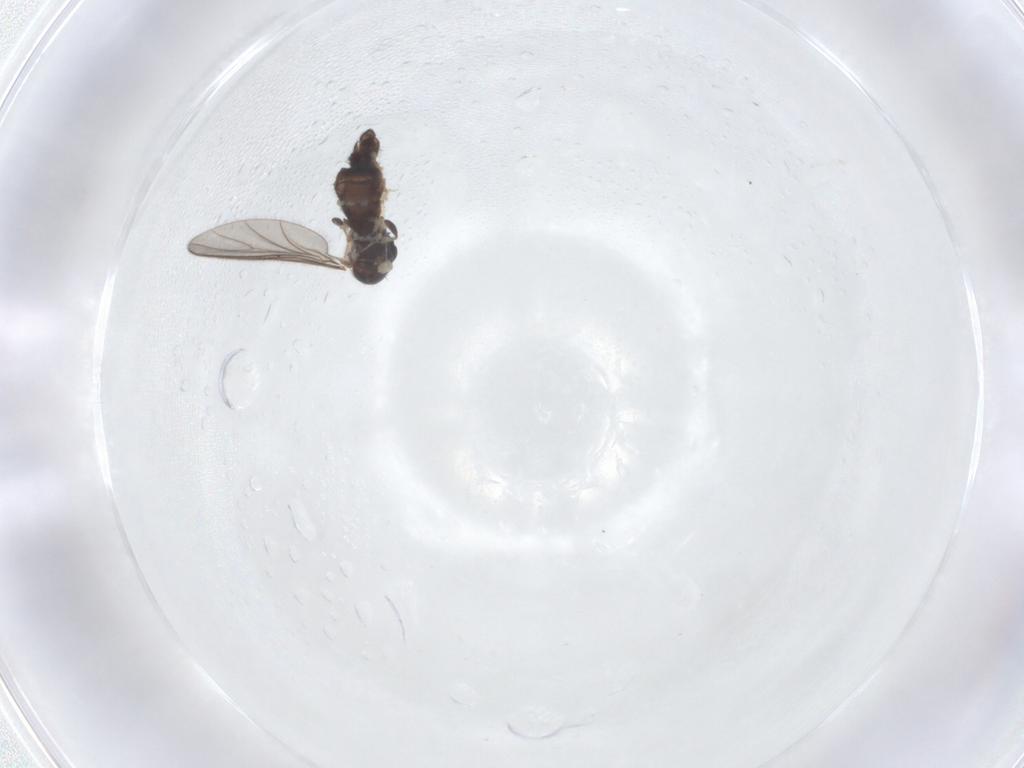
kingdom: Animalia
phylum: Arthropoda
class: Insecta
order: Diptera
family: Sciaridae
